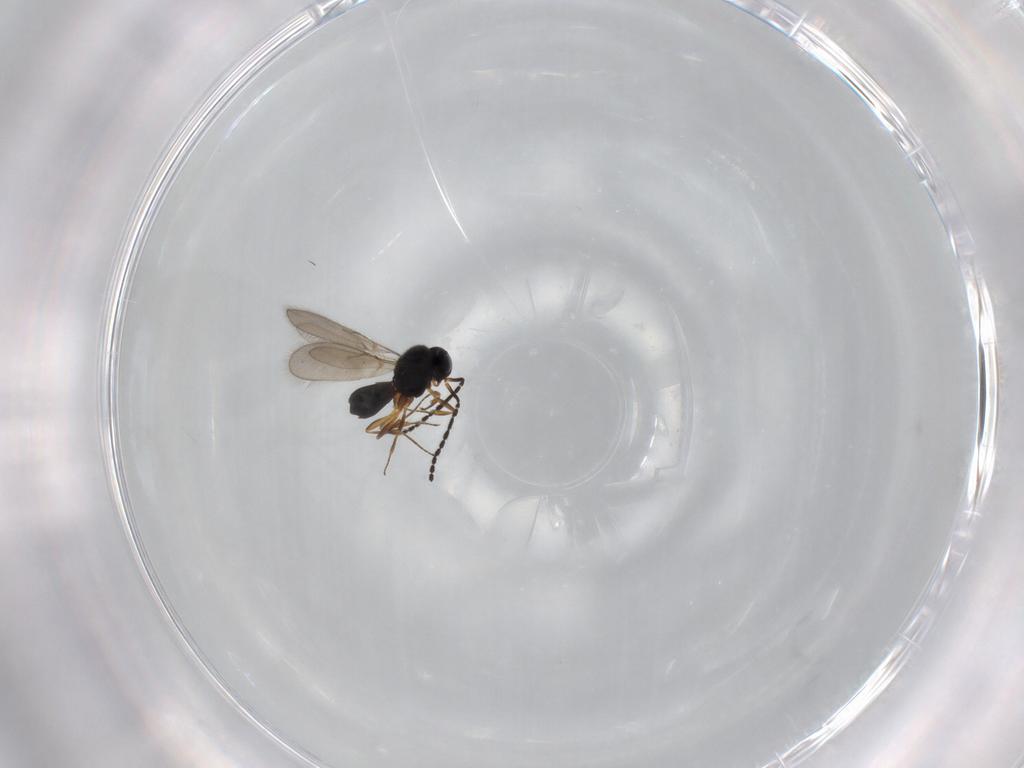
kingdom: Animalia
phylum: Arthropoda
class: Insecta
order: Hymenoptera
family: Scelionidae
